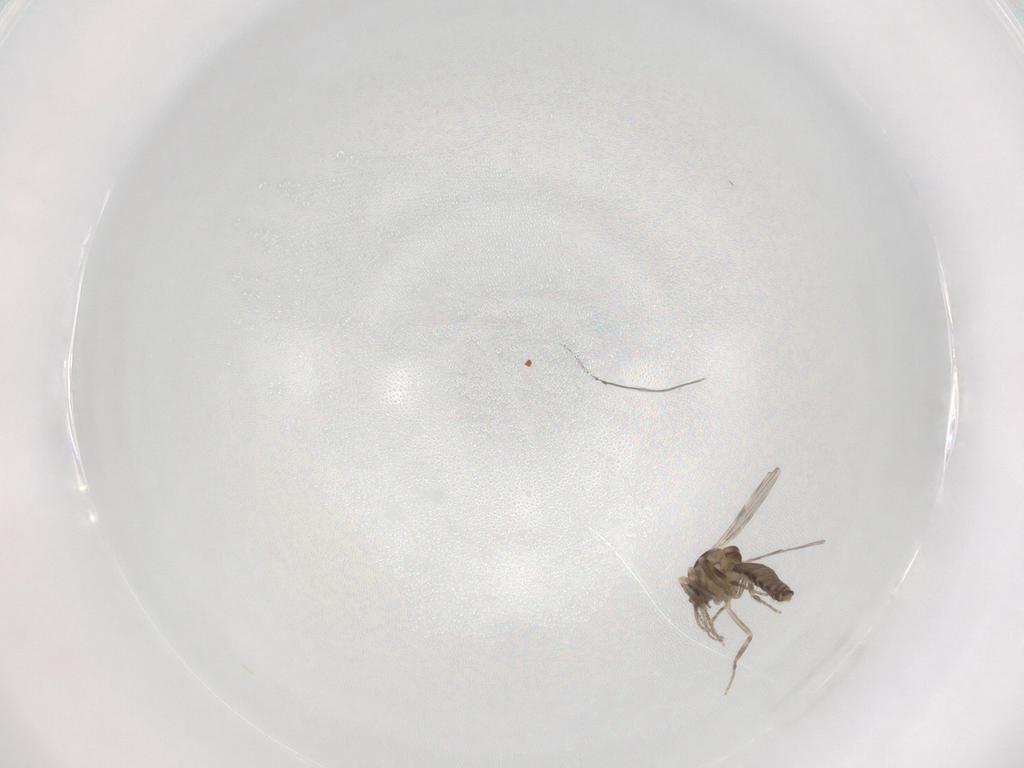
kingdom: Animalia
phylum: Arthropoda
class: Insecta
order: Diptera
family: Ceratopogonidae
